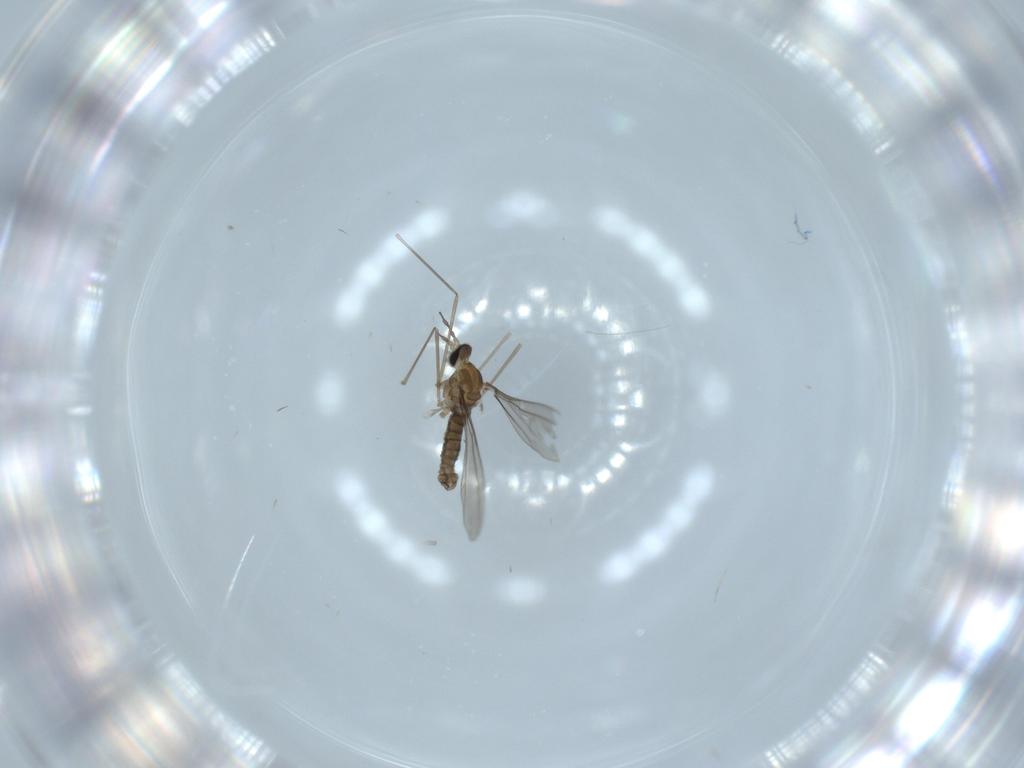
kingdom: Animalia
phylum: Arthropoda
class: Insecta
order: Diptera
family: Cecidomyiidae
